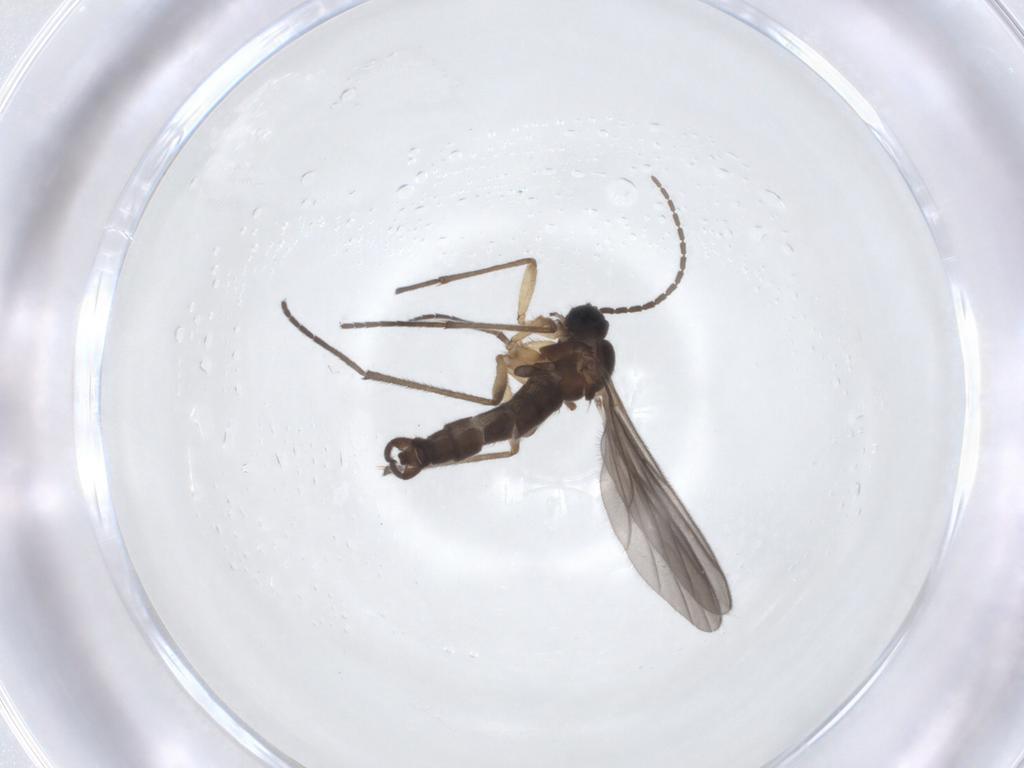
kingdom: Animalia
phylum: Arthropoda
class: Insecta
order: Diptera
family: Sciaridae
